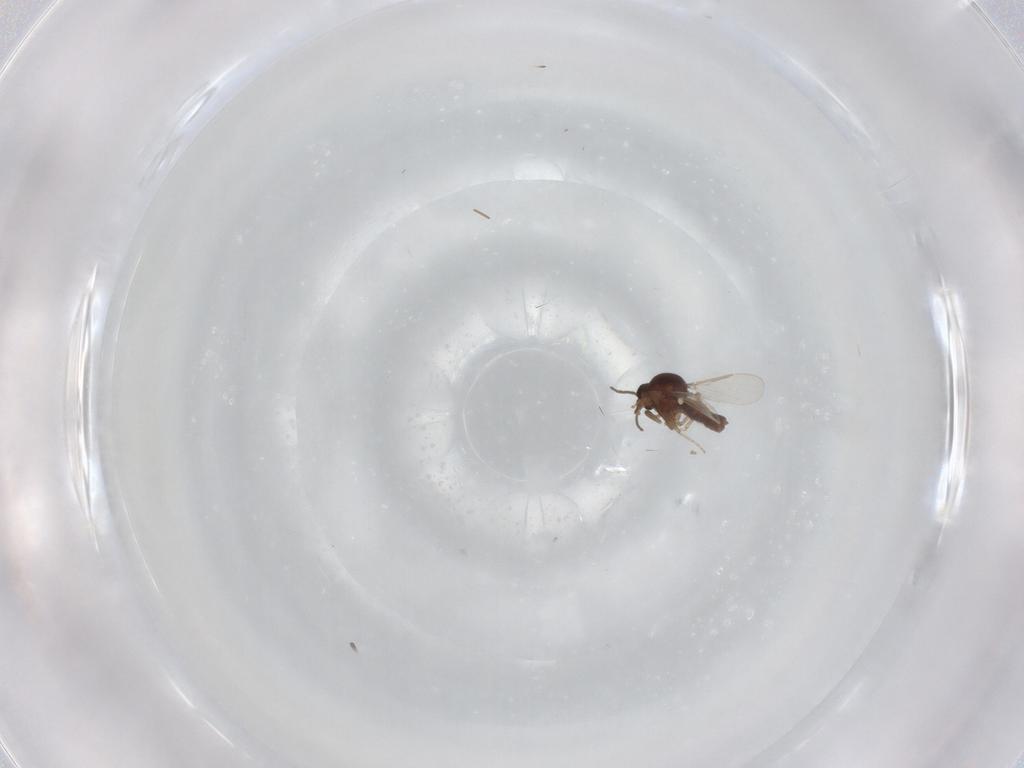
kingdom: Animalia
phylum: Arthropoda
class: Insecta
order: Diptera
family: Ceratopogonidae
